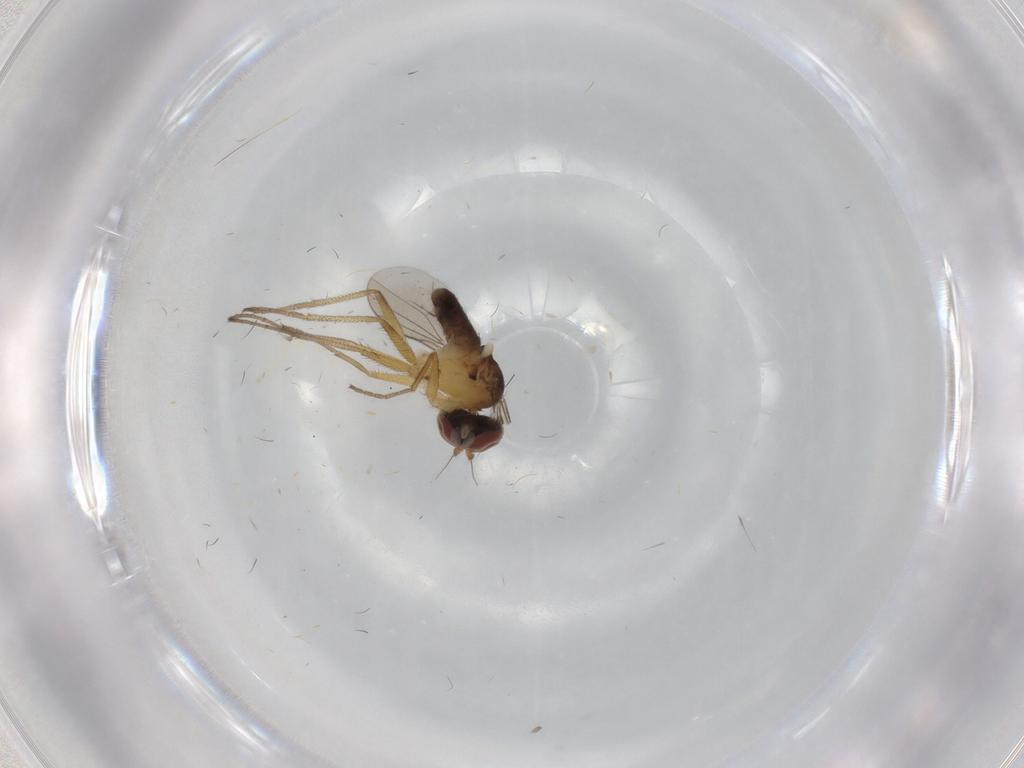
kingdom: Animalia
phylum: Arthropoda
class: Insecta
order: Diptera
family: Dolichopodidae
